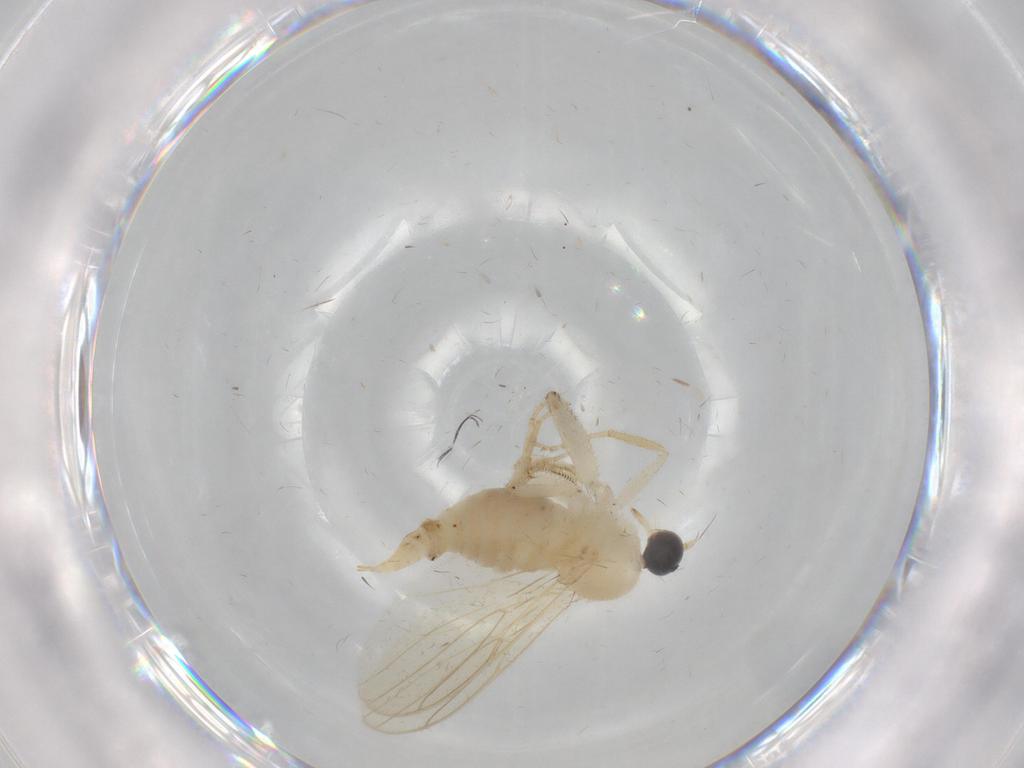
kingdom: Animalia
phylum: Arthropoda
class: Insecta
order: Diptera
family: Hybotidae
